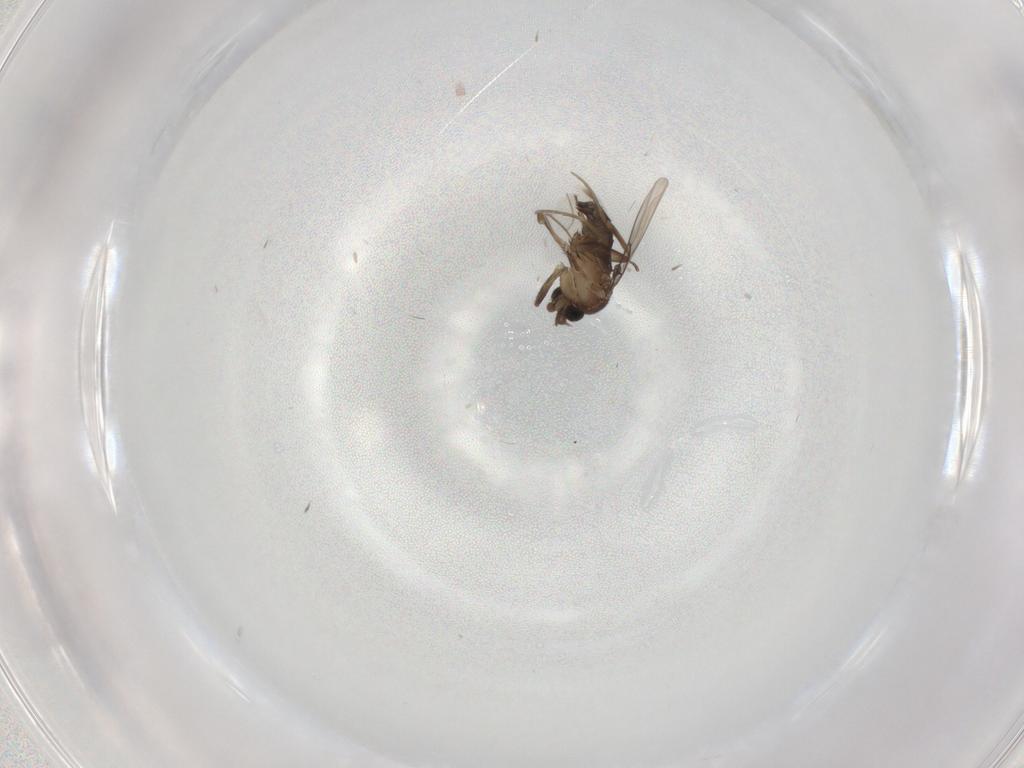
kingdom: Animalia
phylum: Arthropoda
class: Insecta
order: Diptera
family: Phoridae
